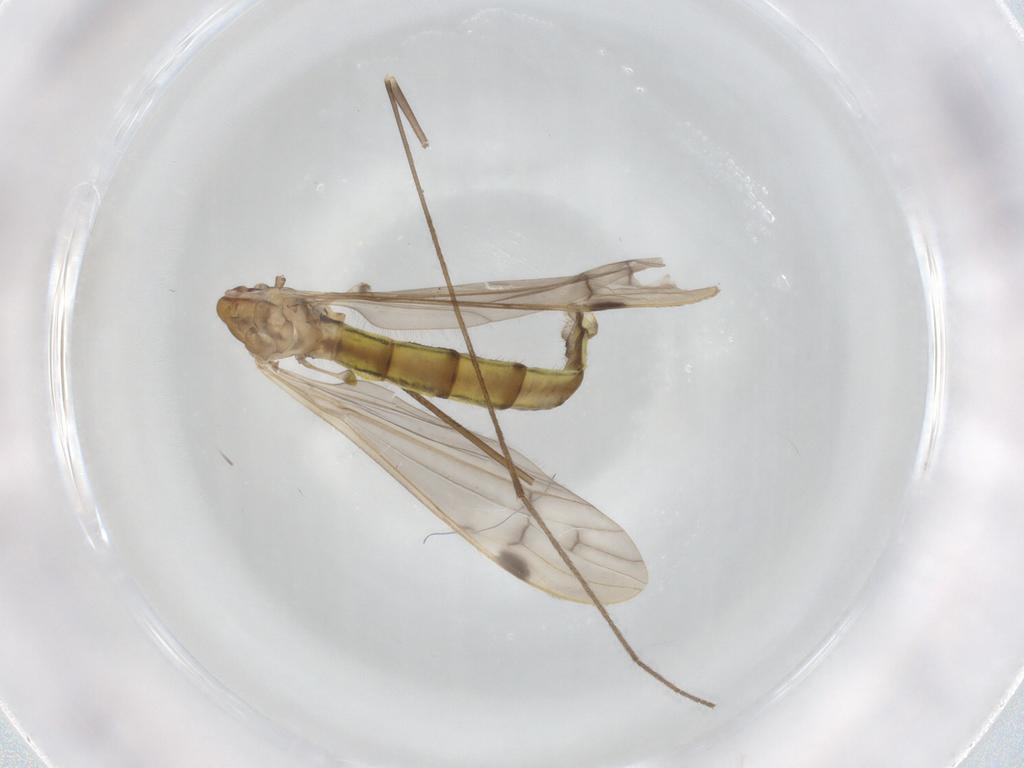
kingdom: Animalia
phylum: Arthropoda
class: Insecta
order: Diptera
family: Limoniidae
